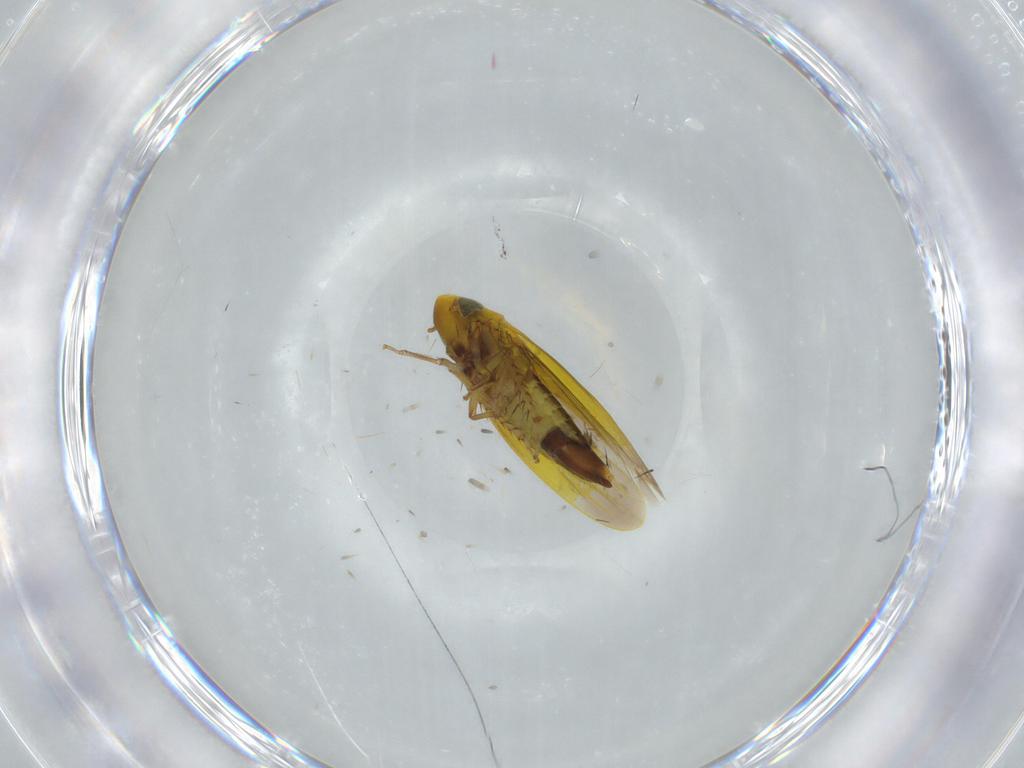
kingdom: Animalia
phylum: Arthropoda
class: Insecta
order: Hemiptera
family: Cicadellidae
